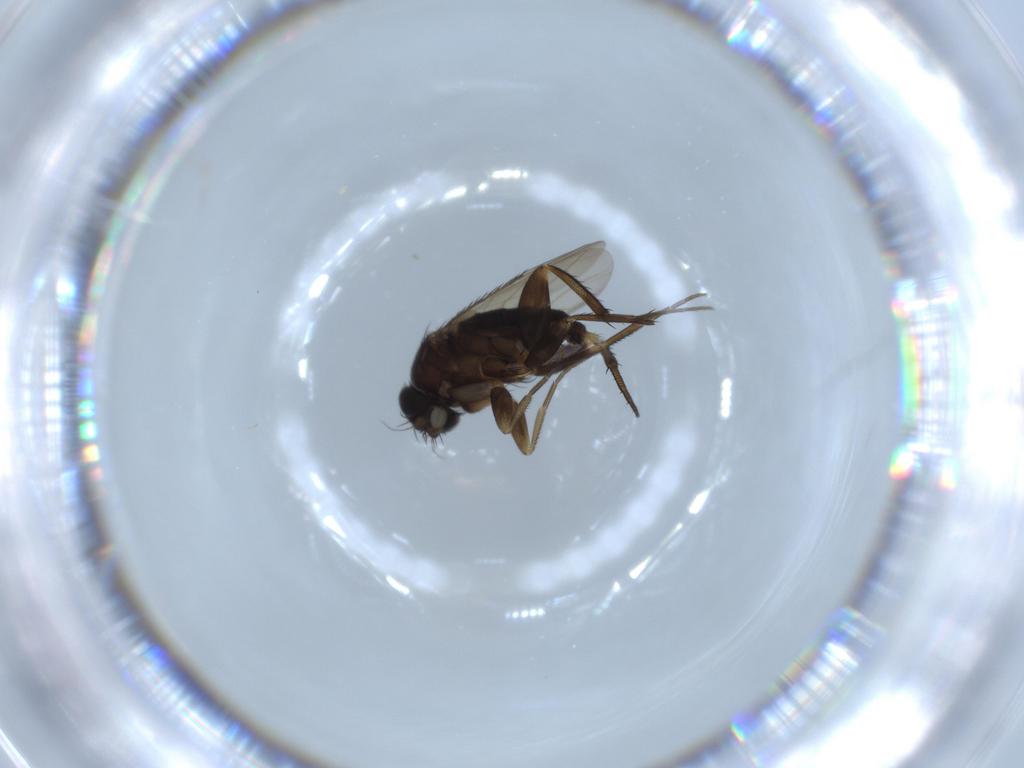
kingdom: Animalia
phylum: Arthropoda
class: Insecta
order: Diptera
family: Phoridae
